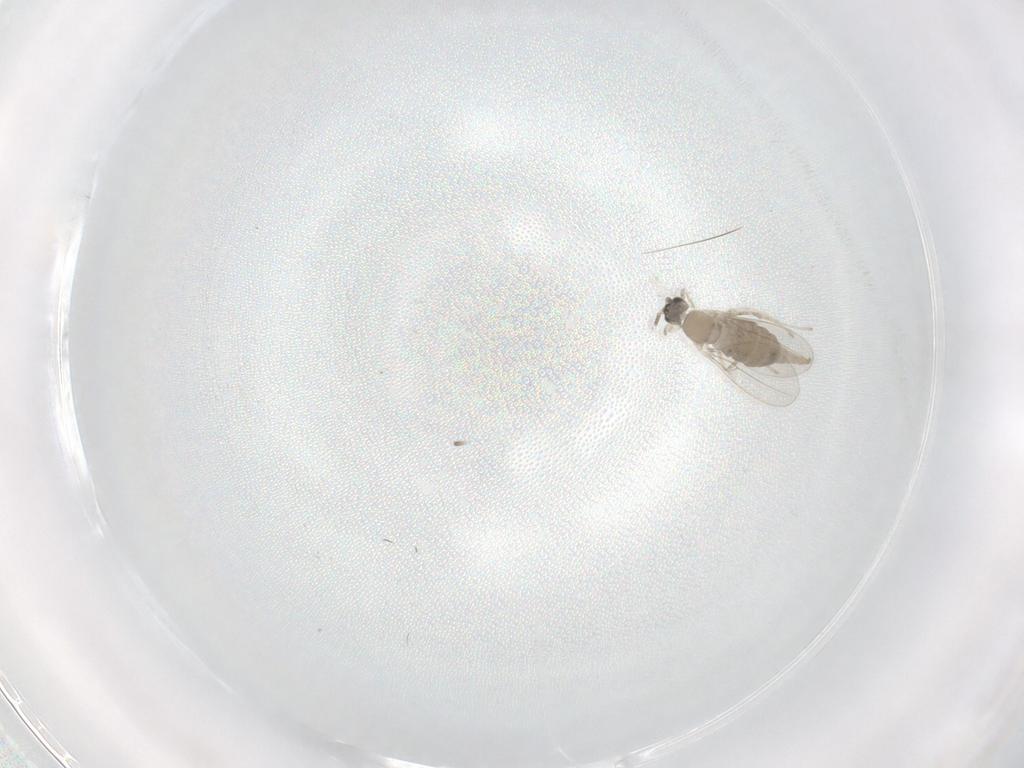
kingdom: Animalia
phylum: Arthropoda
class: Insecta
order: Diptera
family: Cecidomyiidae
